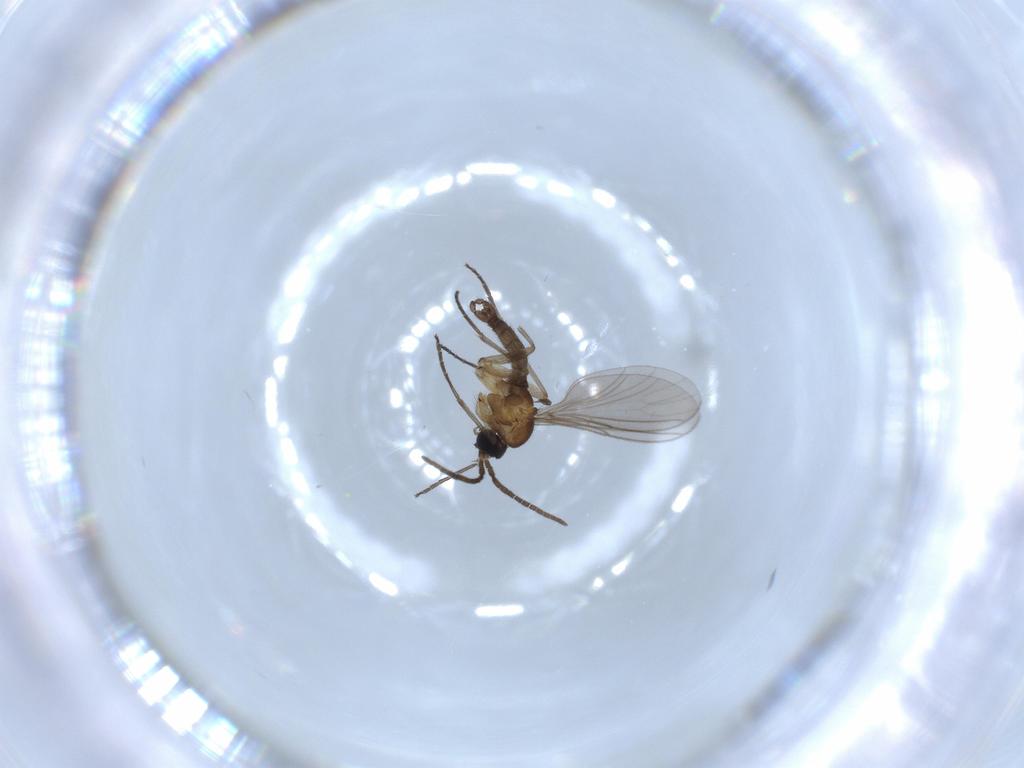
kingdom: Animalia
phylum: Arthropoda
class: Insecta
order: Diptera
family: Sciaridae
